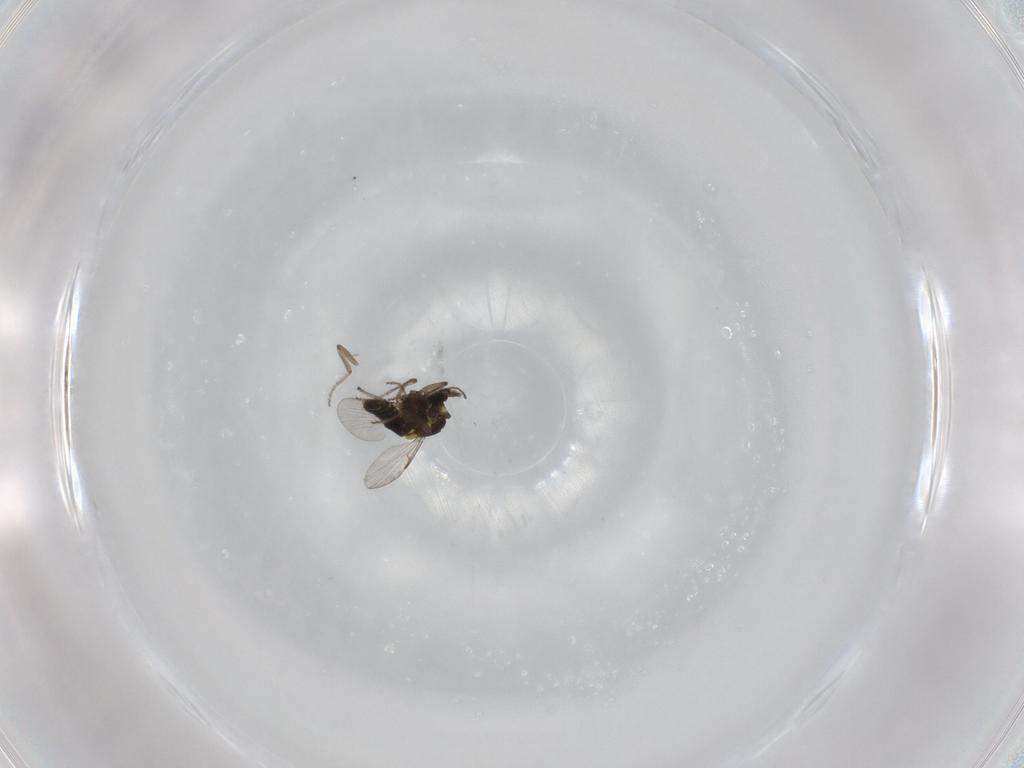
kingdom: Animalia
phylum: Arthropoda
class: Insecta
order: Diptera
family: Ceratopogonidae
